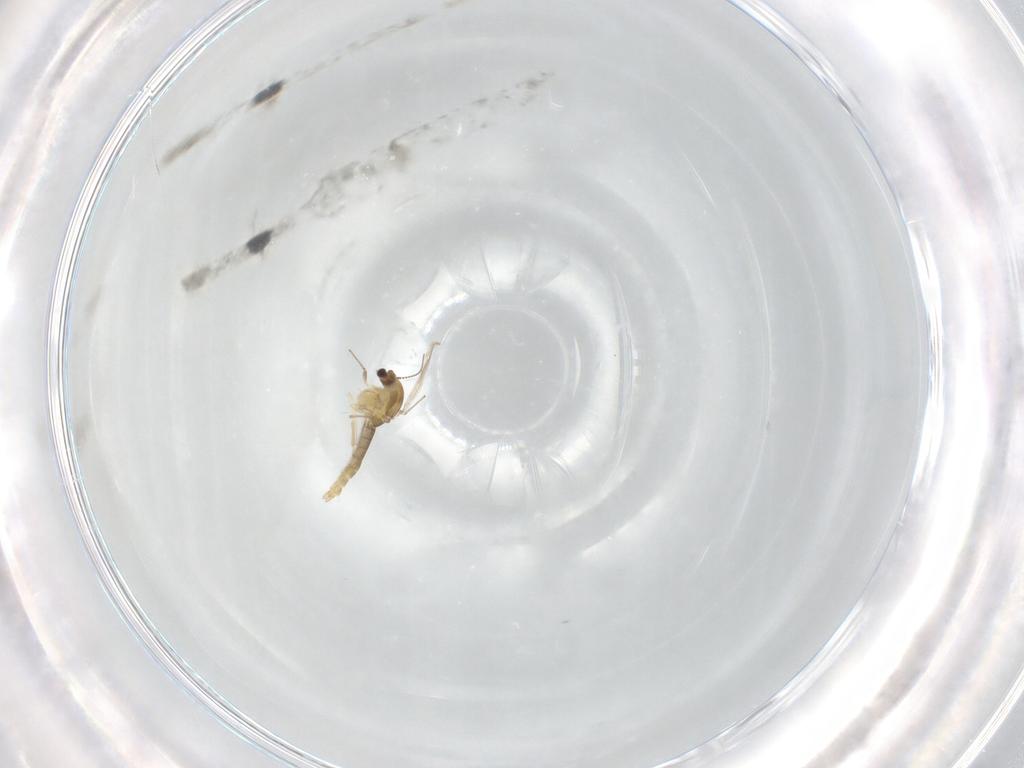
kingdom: Animalia
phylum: Arthropoda
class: Insecta
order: Diptera
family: Chironomidae
